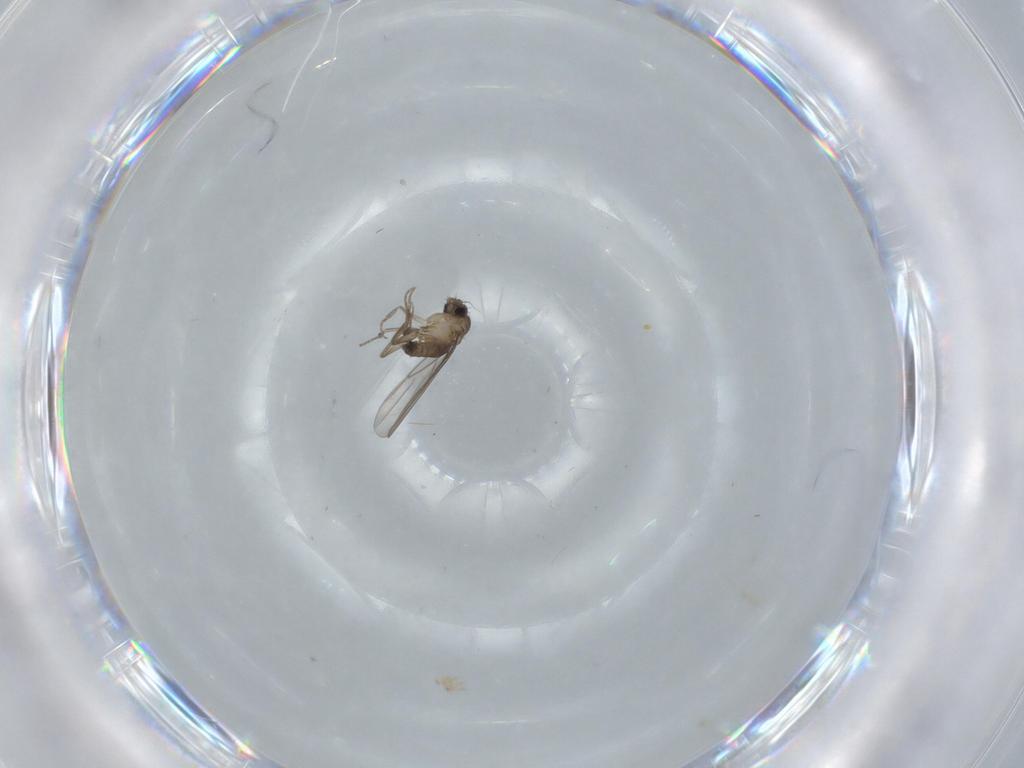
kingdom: Animalia
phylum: Arthropoda
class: Insecta
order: Diptera
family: Phoridae
